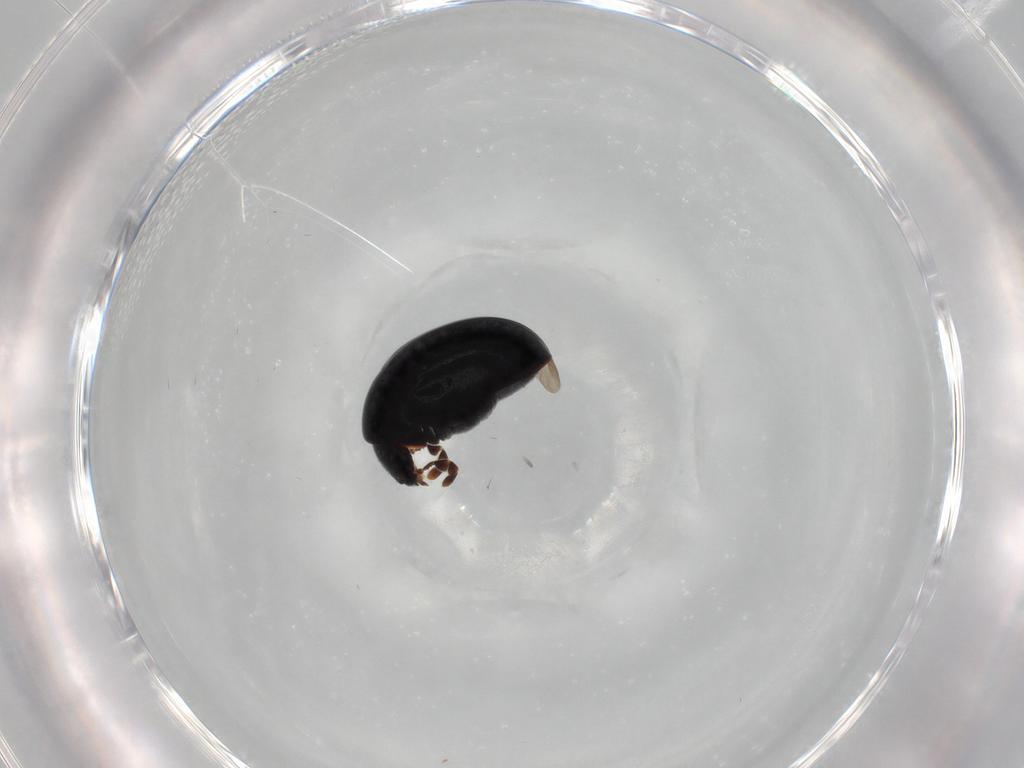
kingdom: Animalia
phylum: Arthropoda
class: Insecta
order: Coleoptera
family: Ptinidae
